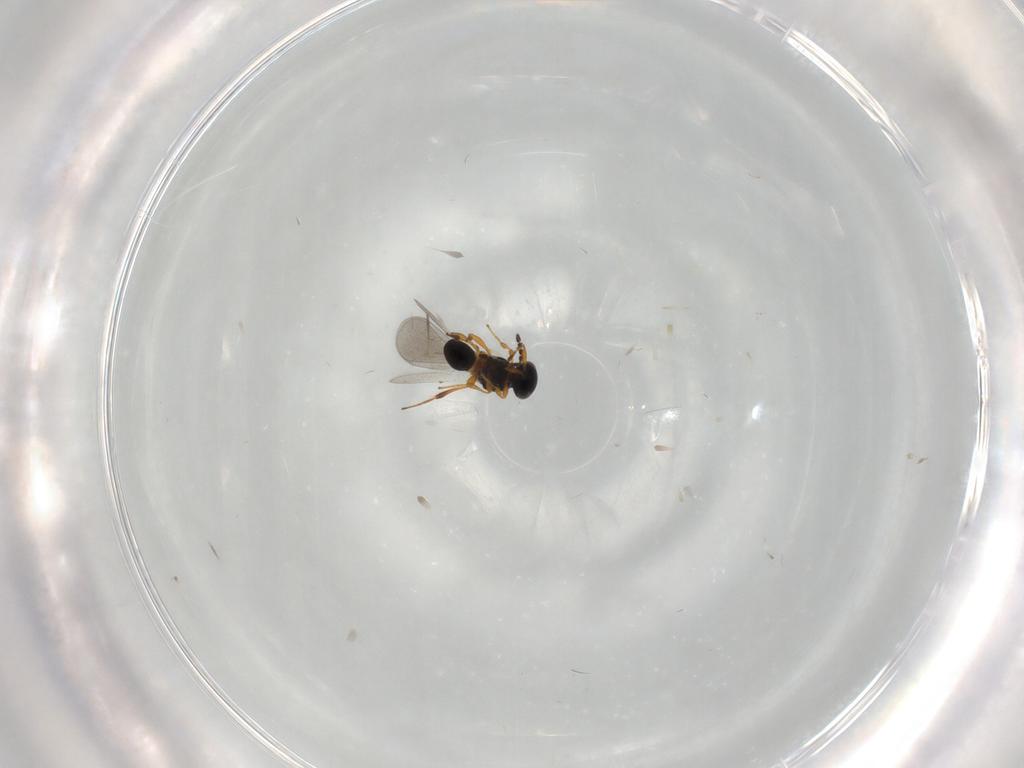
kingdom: Animalia
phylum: Arthropoda
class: Insecta
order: Hymenoptera
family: Platygastridae
